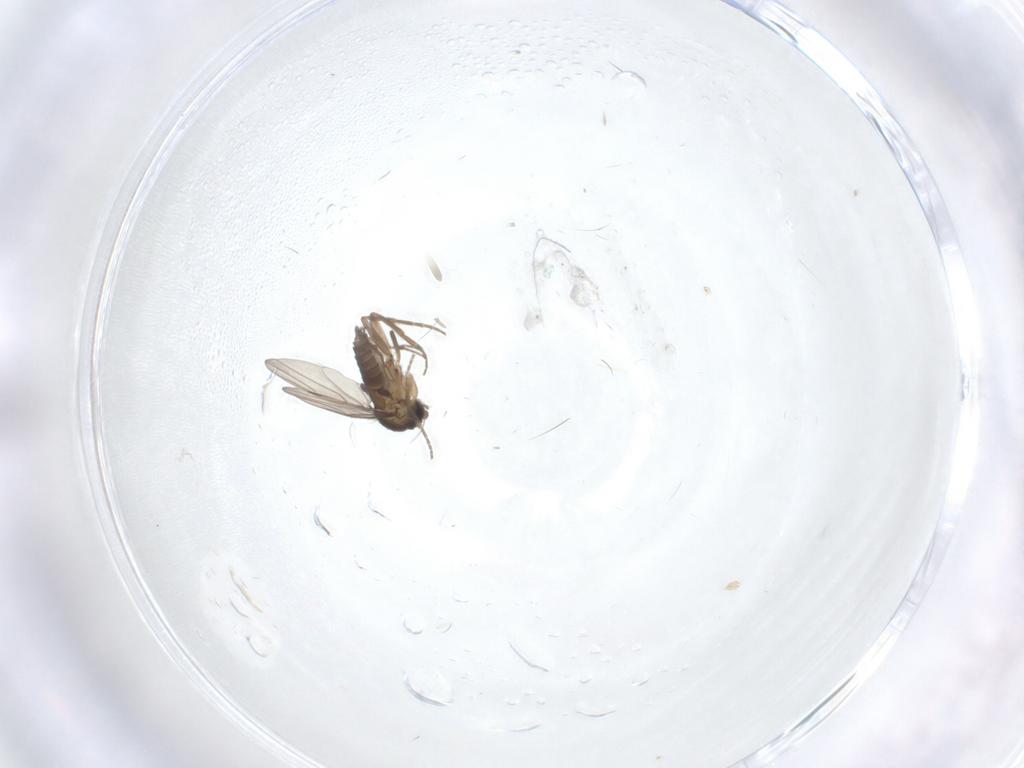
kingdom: Animalia
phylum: Arthropoda
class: Insecta
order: Diptera
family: Phoridae
